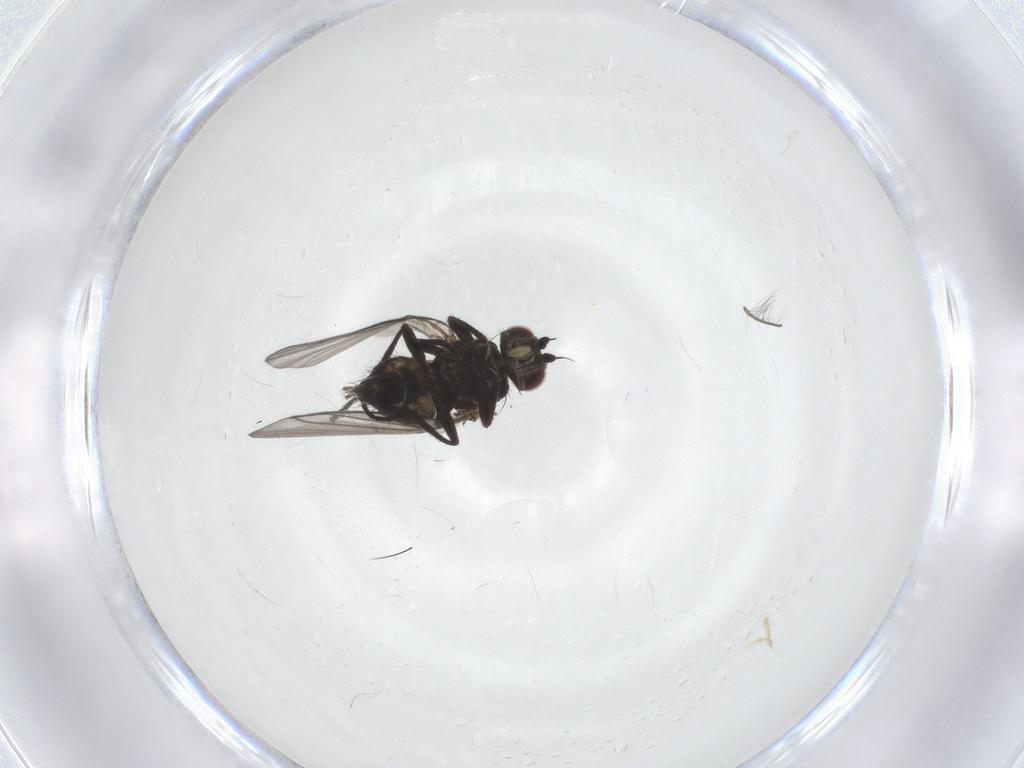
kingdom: Animalia
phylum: Arthropoda
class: Insecta
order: Diptera
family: Agromyzidae
